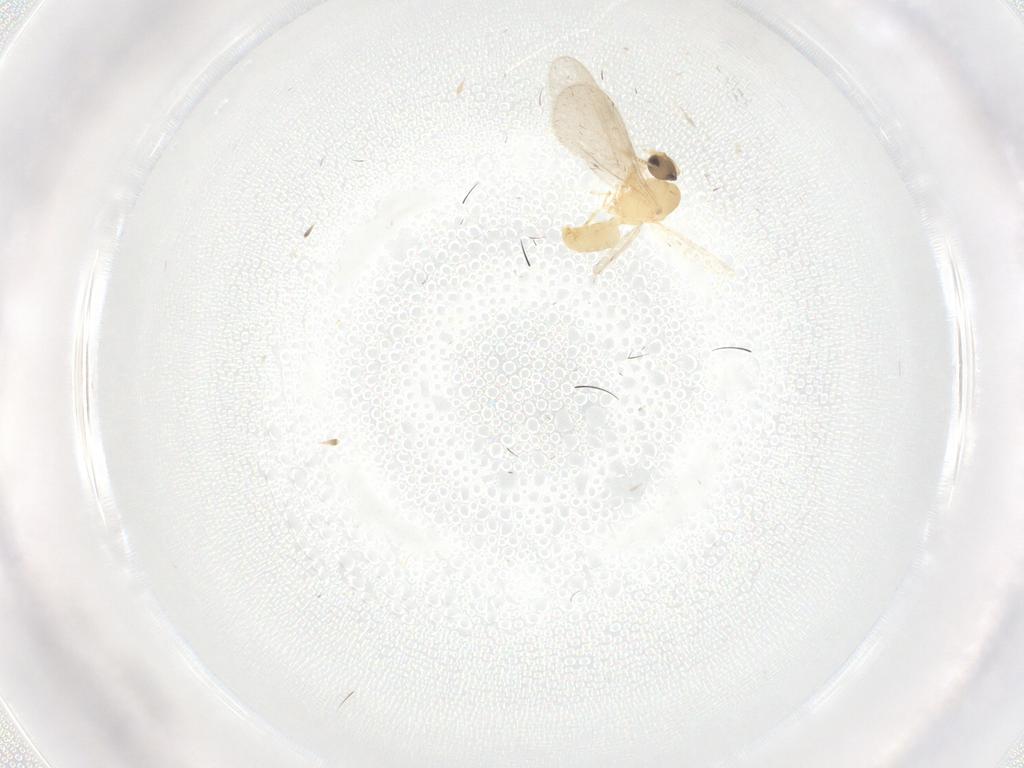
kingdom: Animalia
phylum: Arthropoda
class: Insecta
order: Hymenoptera
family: Formicidae
